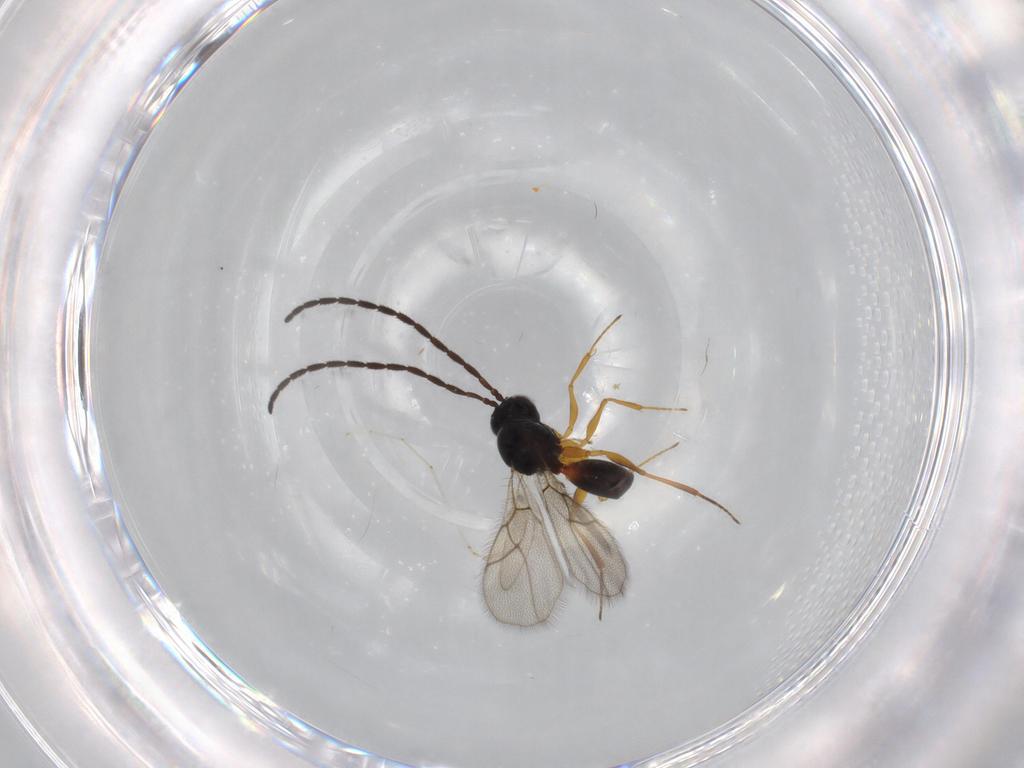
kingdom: Animalia
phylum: Arthropoda
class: Insecta
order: Hymenoptera
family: Figitidae
